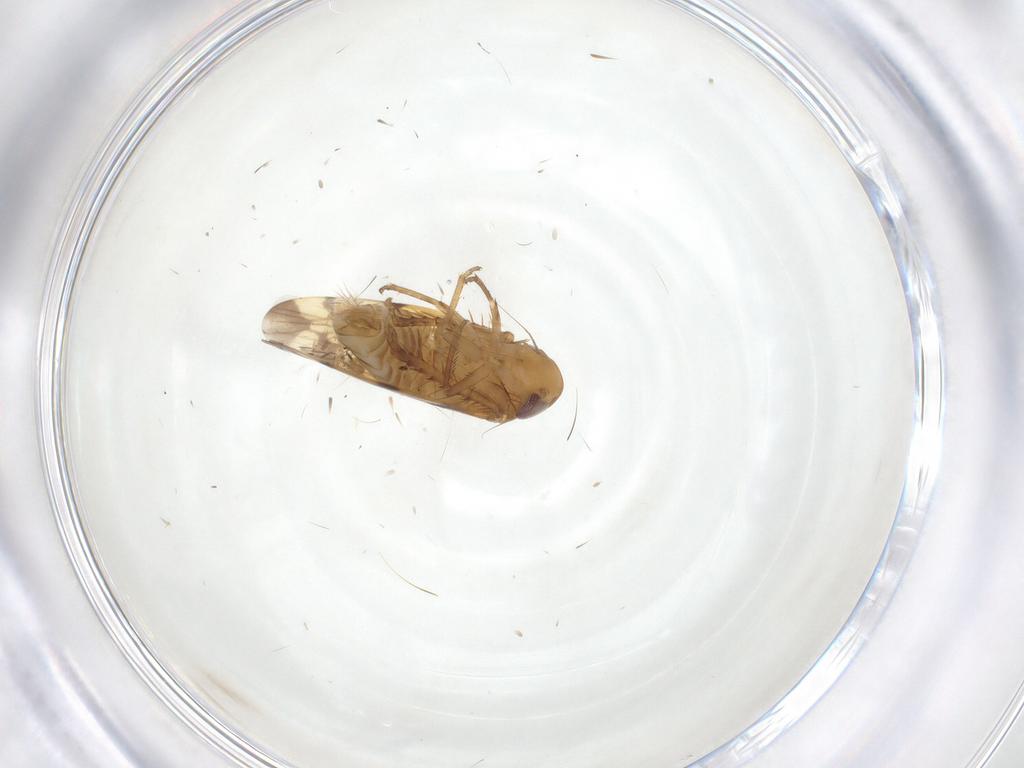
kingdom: Animalia
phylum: Arthropoda
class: Insecta
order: Hemiptera
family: Cicadellidae
